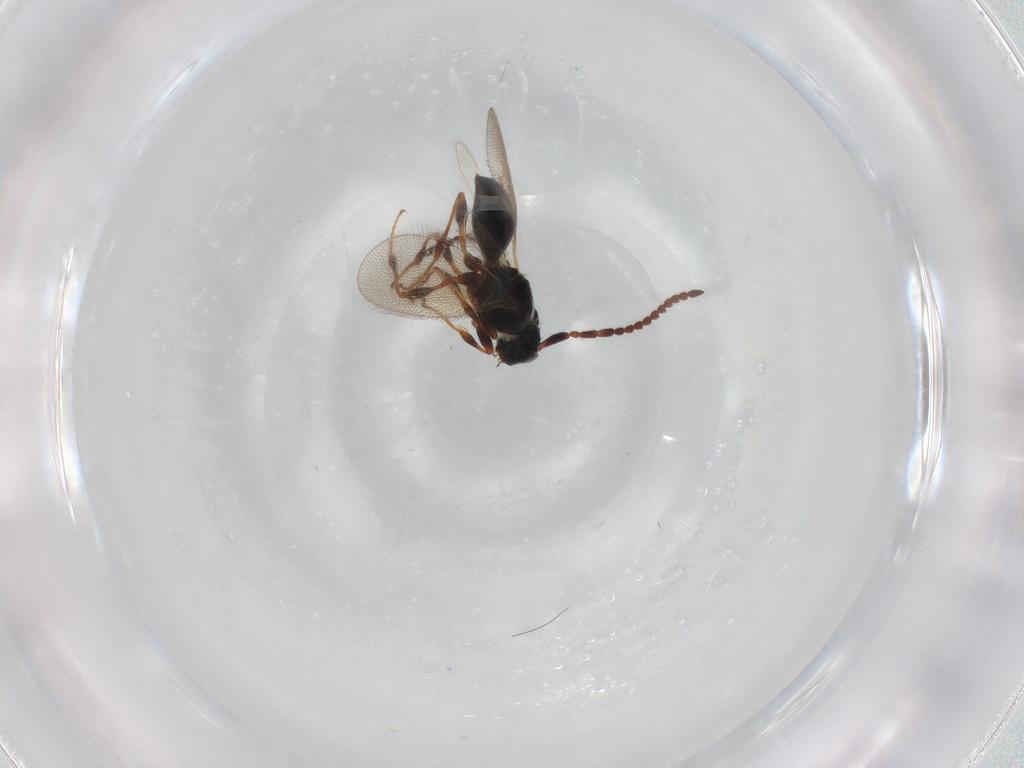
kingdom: Animalia
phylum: Arthropoda
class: Insecta
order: Hymenoptera
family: Diapriidae
